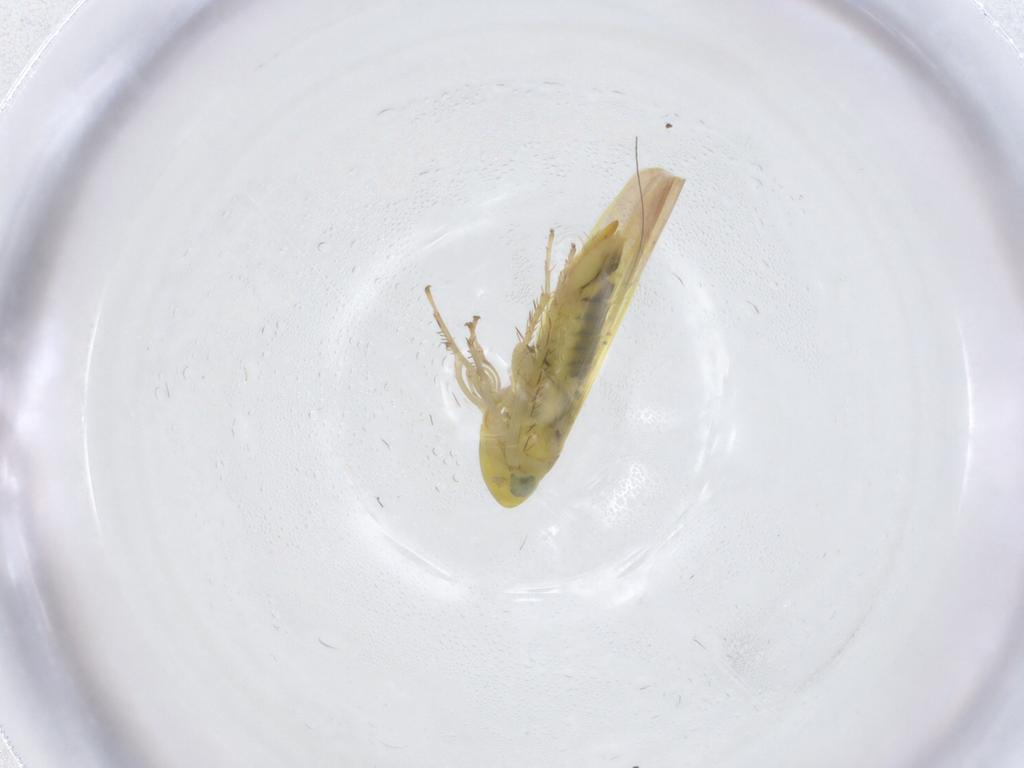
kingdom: Animalia
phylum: Arthropoda
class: Insecta
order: Hemiptera
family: Cicadellidae
